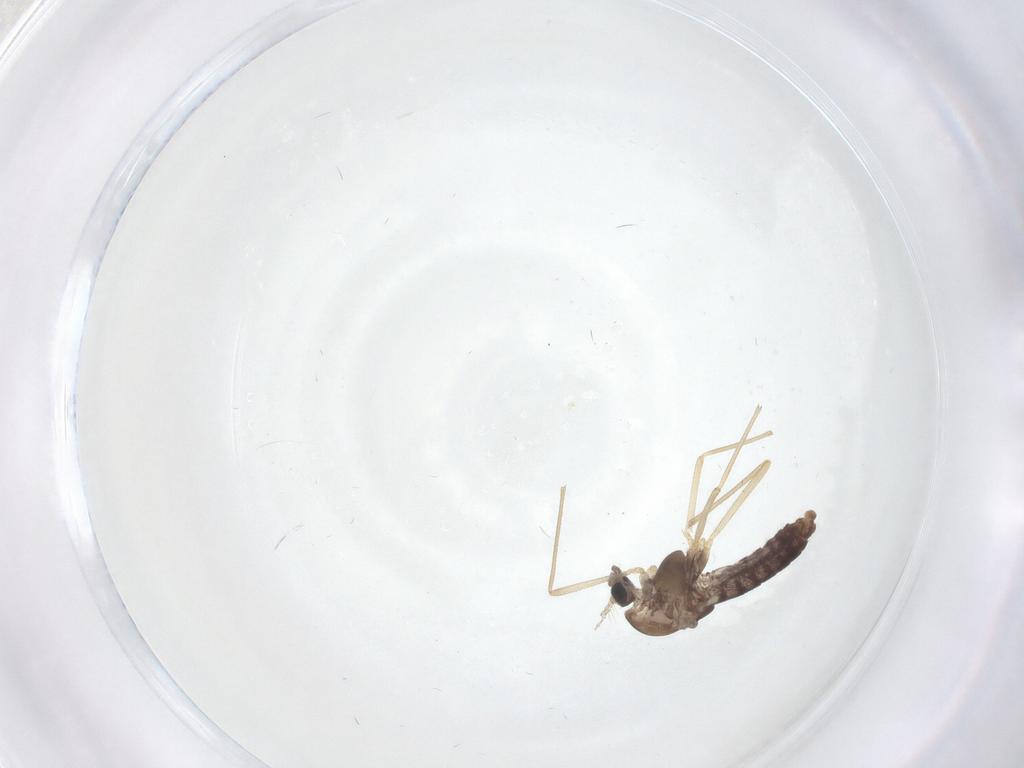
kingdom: Animalia
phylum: Arthropoda
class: Insecta
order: Diptera
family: Chironomidae
